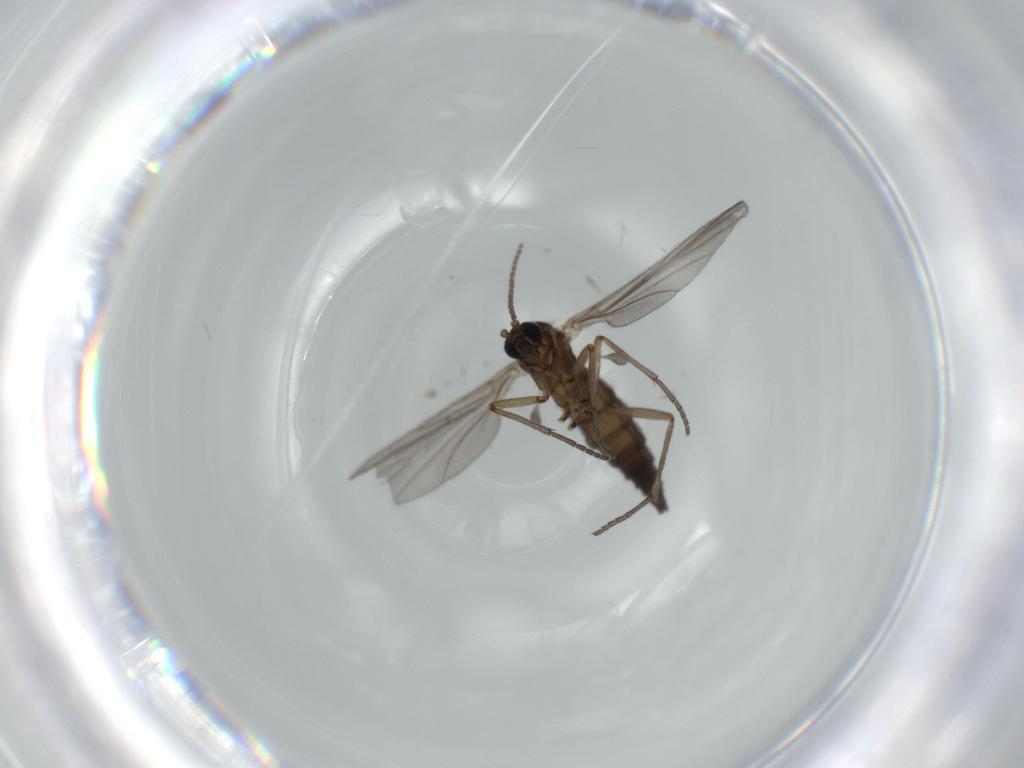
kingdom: Animalia
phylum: Arthropoda
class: Insecta
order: Diptera
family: Sciaridae
